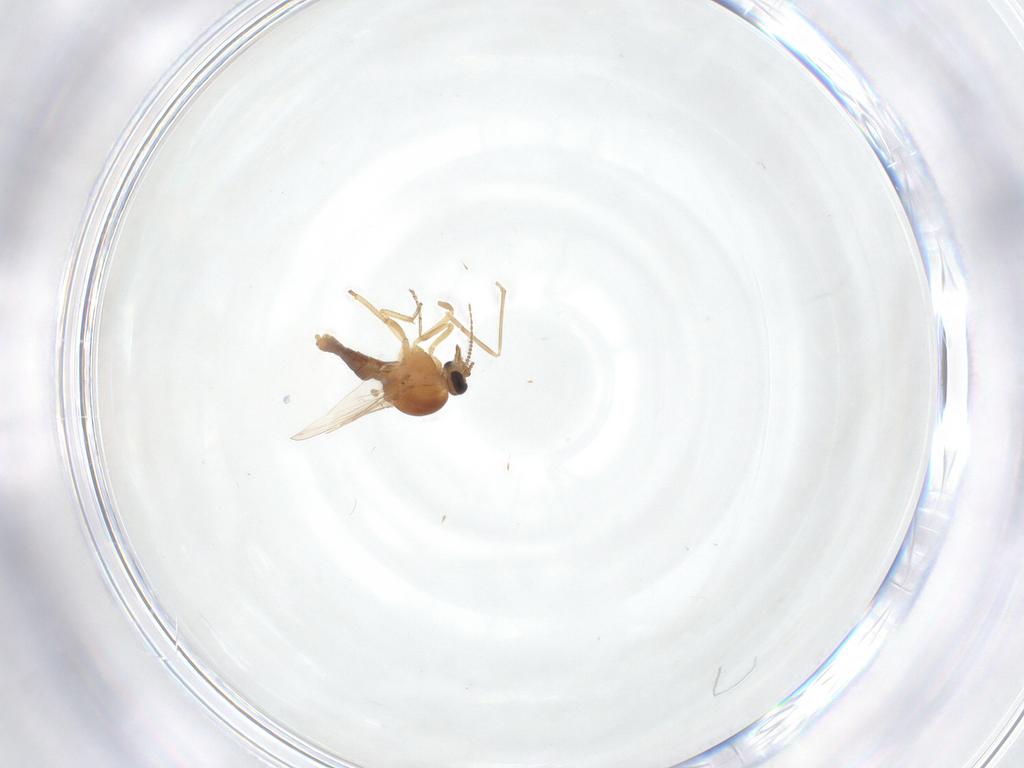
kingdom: Animalia
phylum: Arthropoda
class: Insecta
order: Diptera
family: Ceratopogonidae
